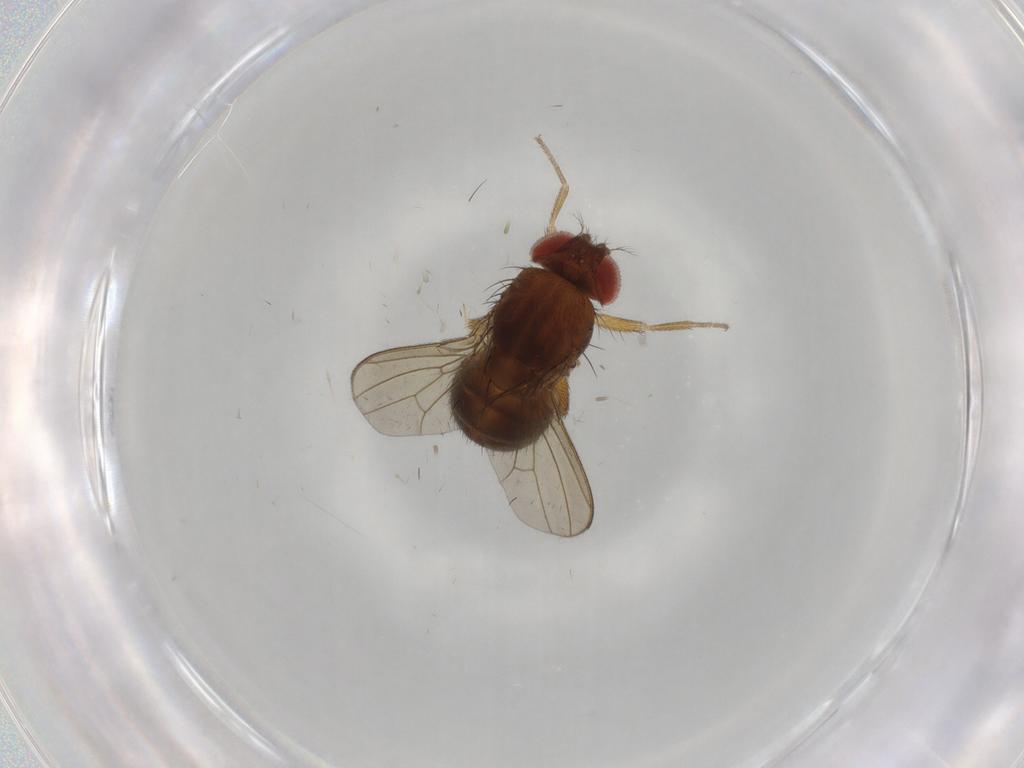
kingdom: Animalia
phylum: Arthropoda
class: Insecta
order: Diptera
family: Drosophilidae
